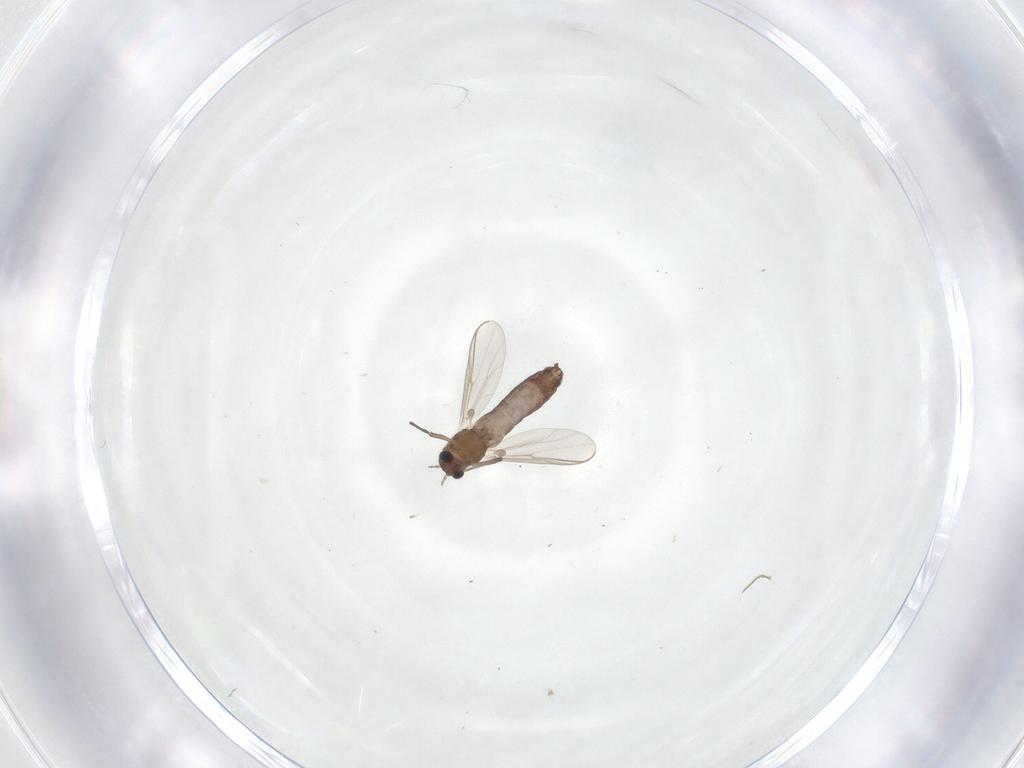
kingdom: Animalia
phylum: Arthropoda
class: Insecta
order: Diptera
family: Chironomidae
